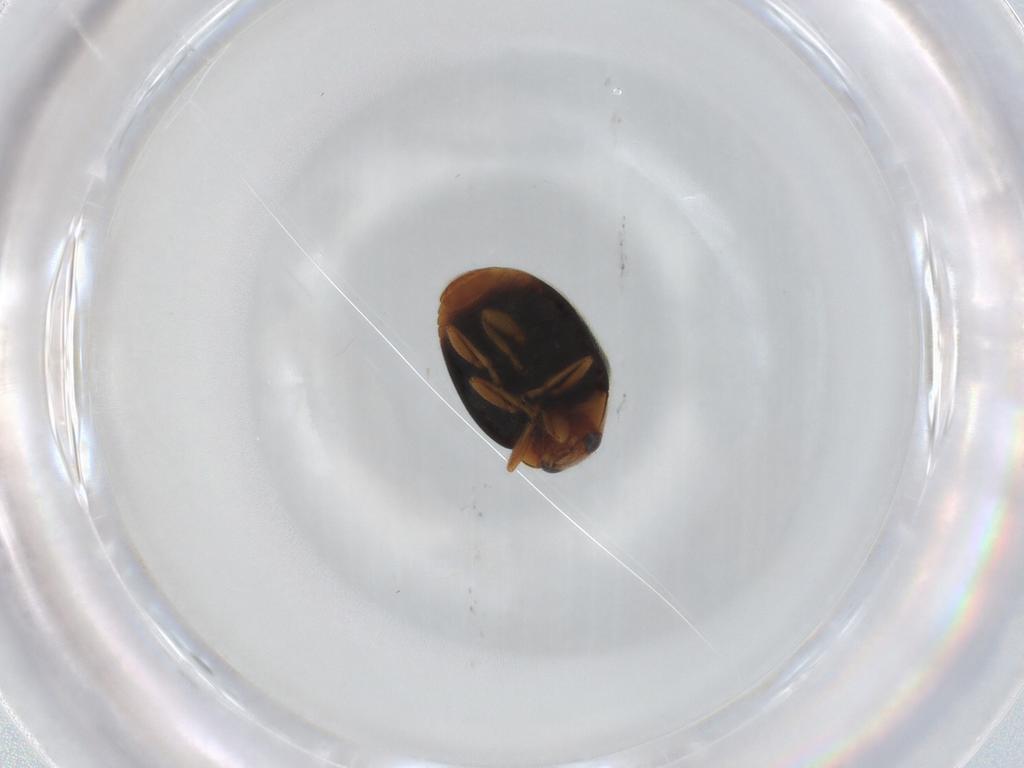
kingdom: Animalia
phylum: Arthropoda
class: Insecta
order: Coleoptera
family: Coccinellidae
